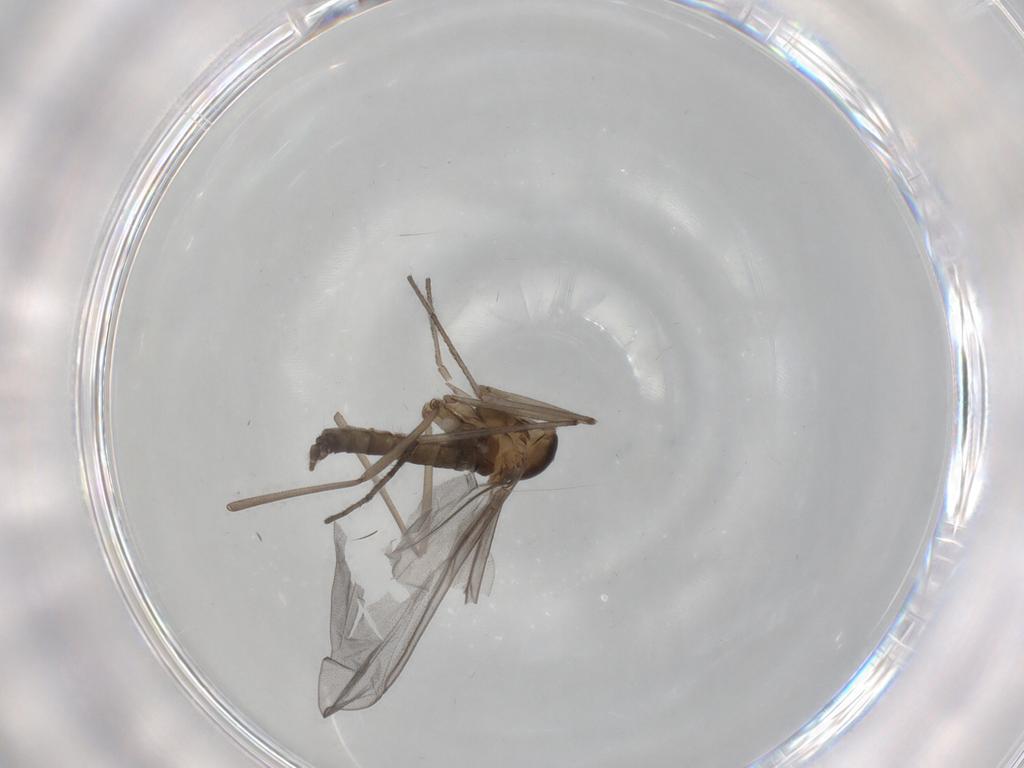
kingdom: Animalia
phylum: Arthropoda
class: Insecta
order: Diptera
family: Cecidomyiidae
